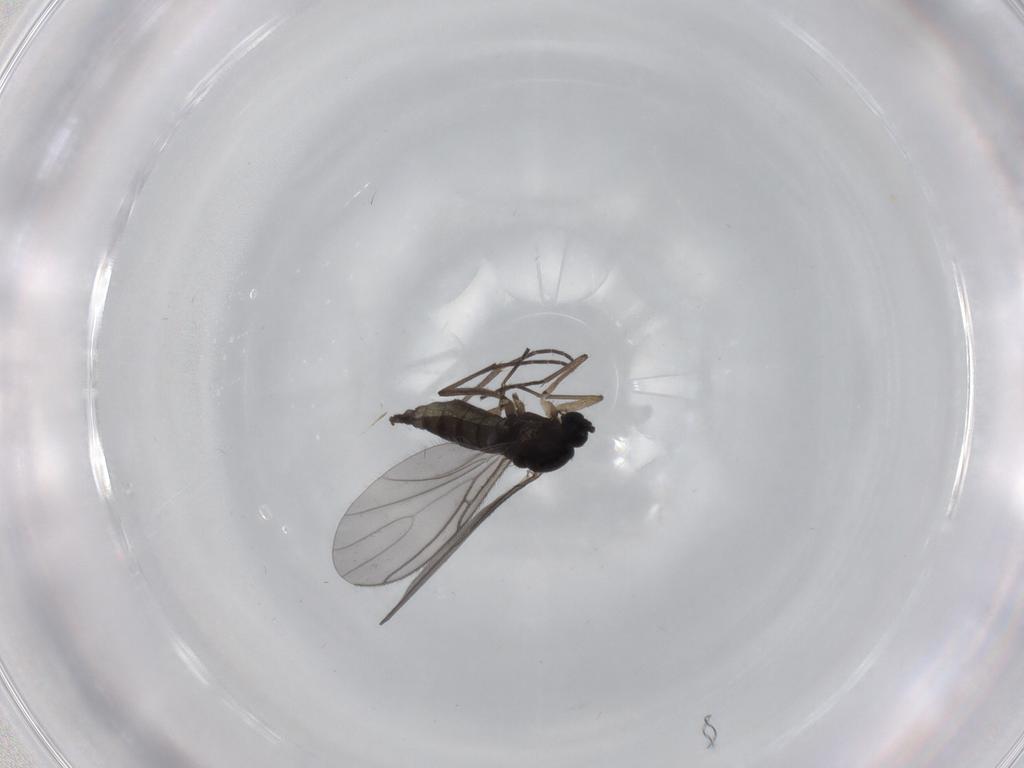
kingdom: Animalia
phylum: Arthropoda
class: Insecta
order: Diptera
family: Sciaridae
